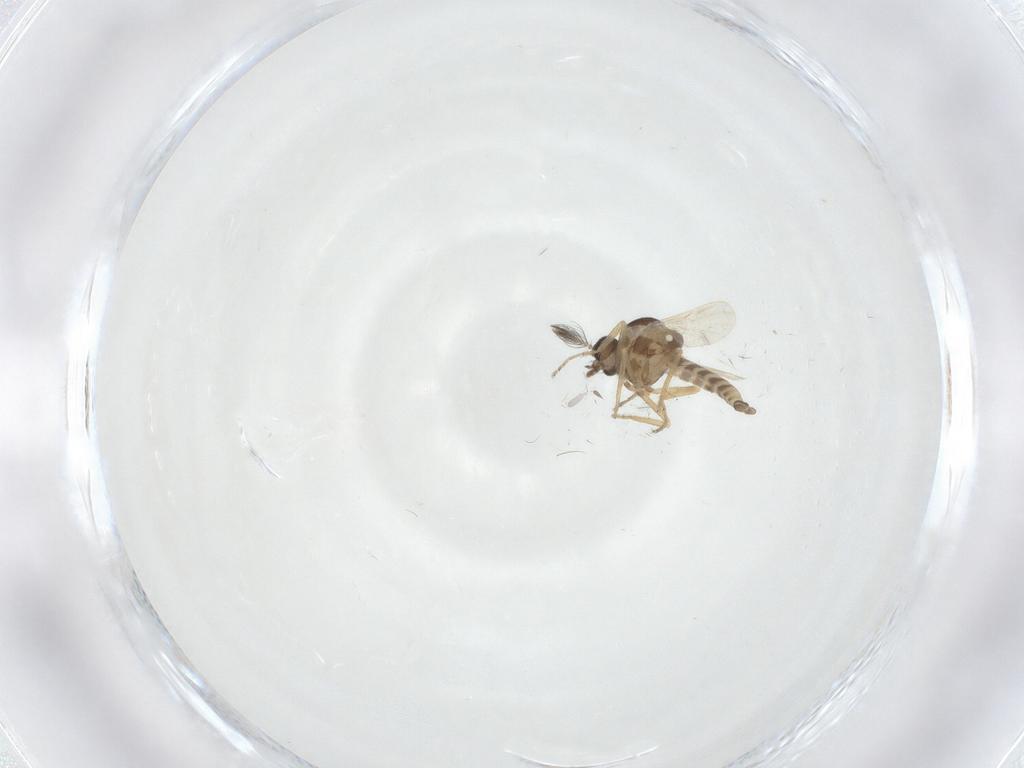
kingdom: Animalia
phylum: Arthropoda
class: Insecta
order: Diptera
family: Ceratopogonidae
